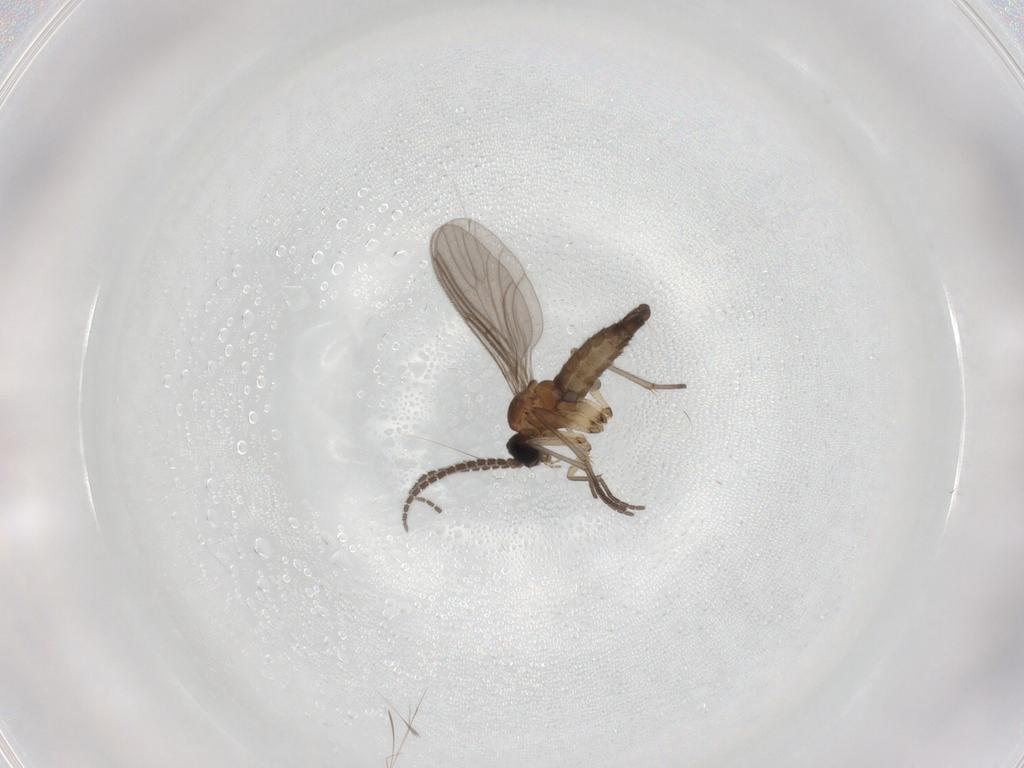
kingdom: Animalia
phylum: Arthropoda
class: Insecta
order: Diptera
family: Sciaridae
